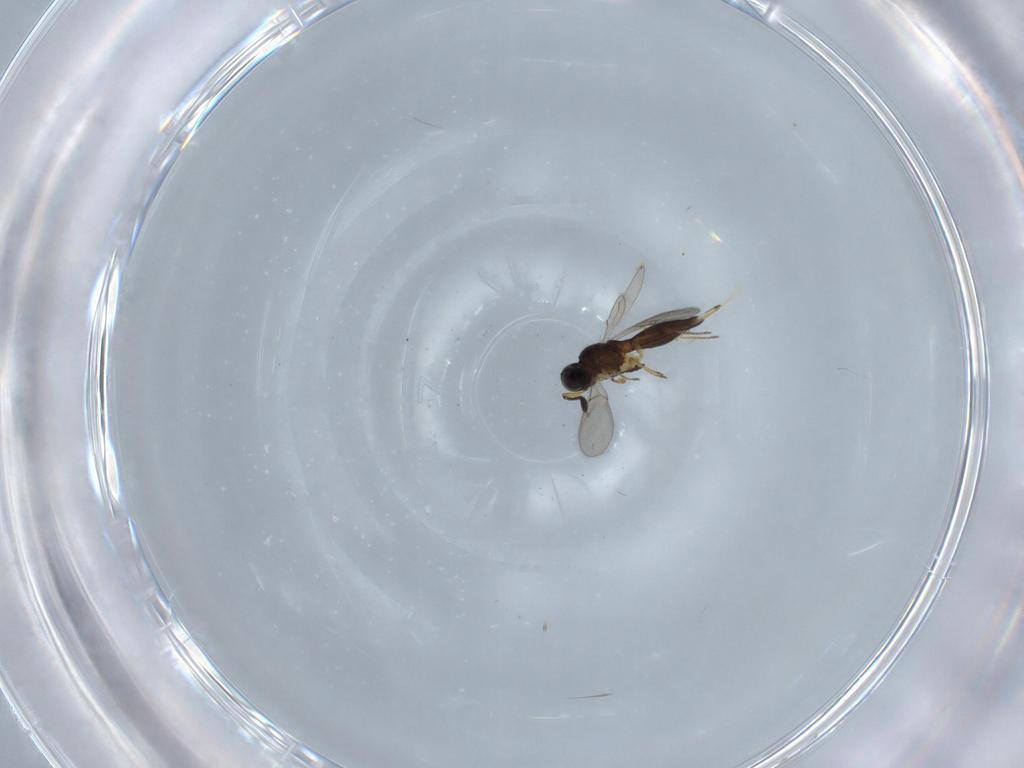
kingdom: Animalia
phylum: Arthropoda
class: Insecta
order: Hymenoptera
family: Scelionidae
